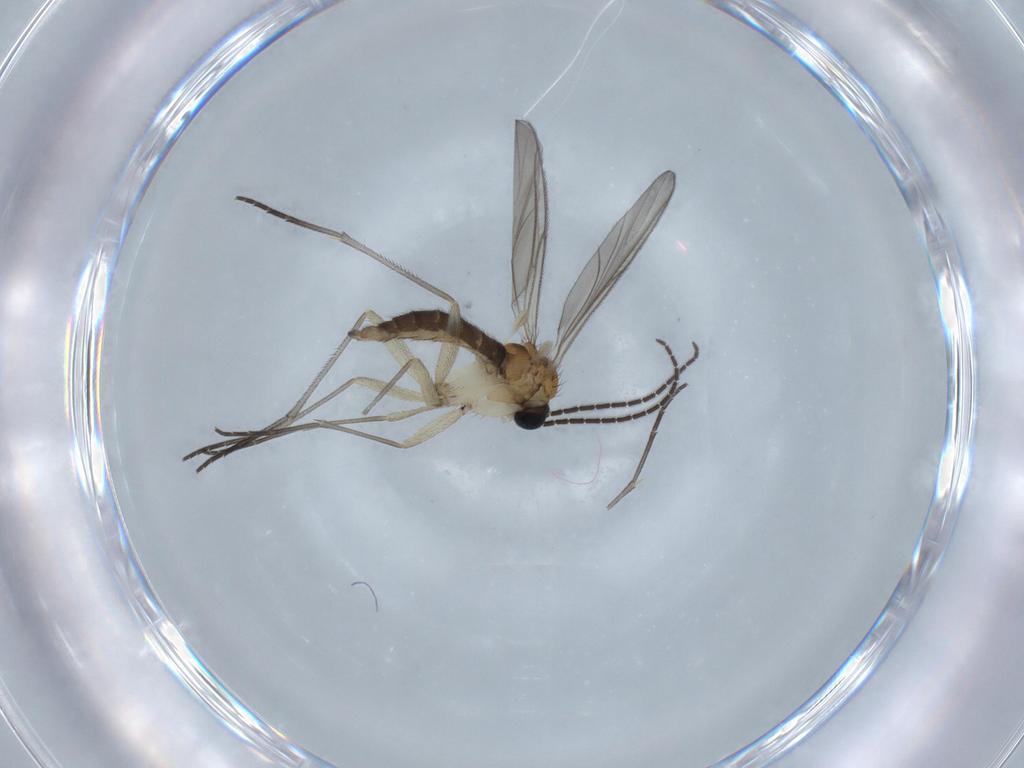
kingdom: Animalia
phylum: Arthropoda
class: Insecta
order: Diptera
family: Sciaridae
